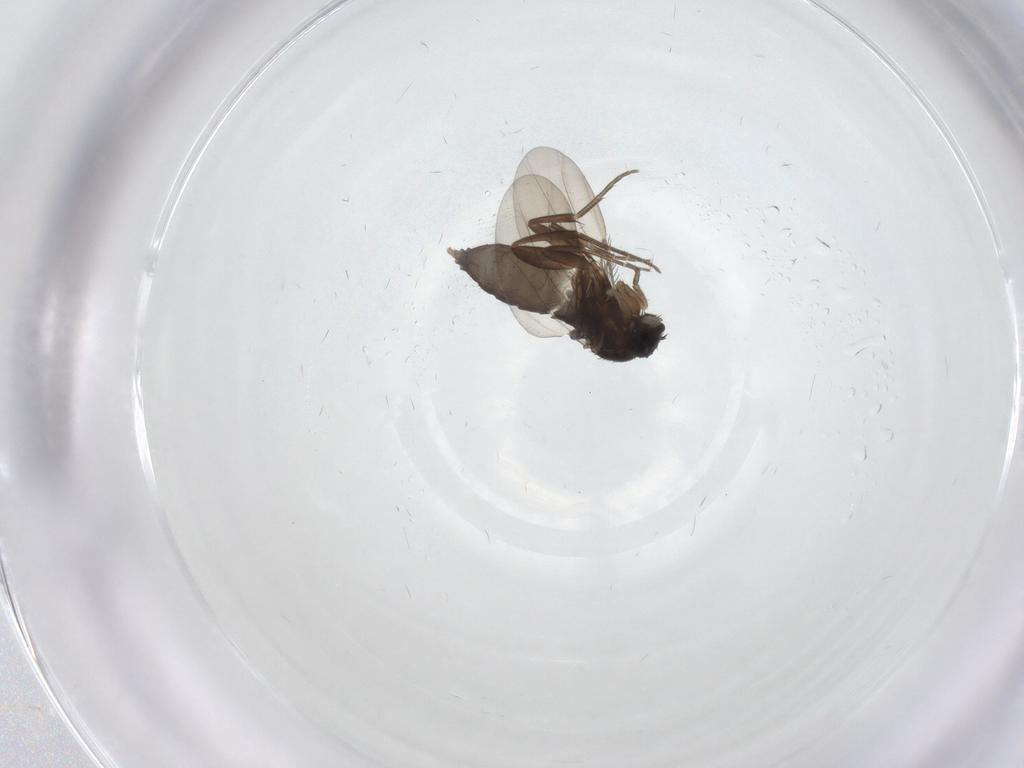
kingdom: Animalia
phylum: Arthropoda
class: Insecta
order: Diptera
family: Phoridae
